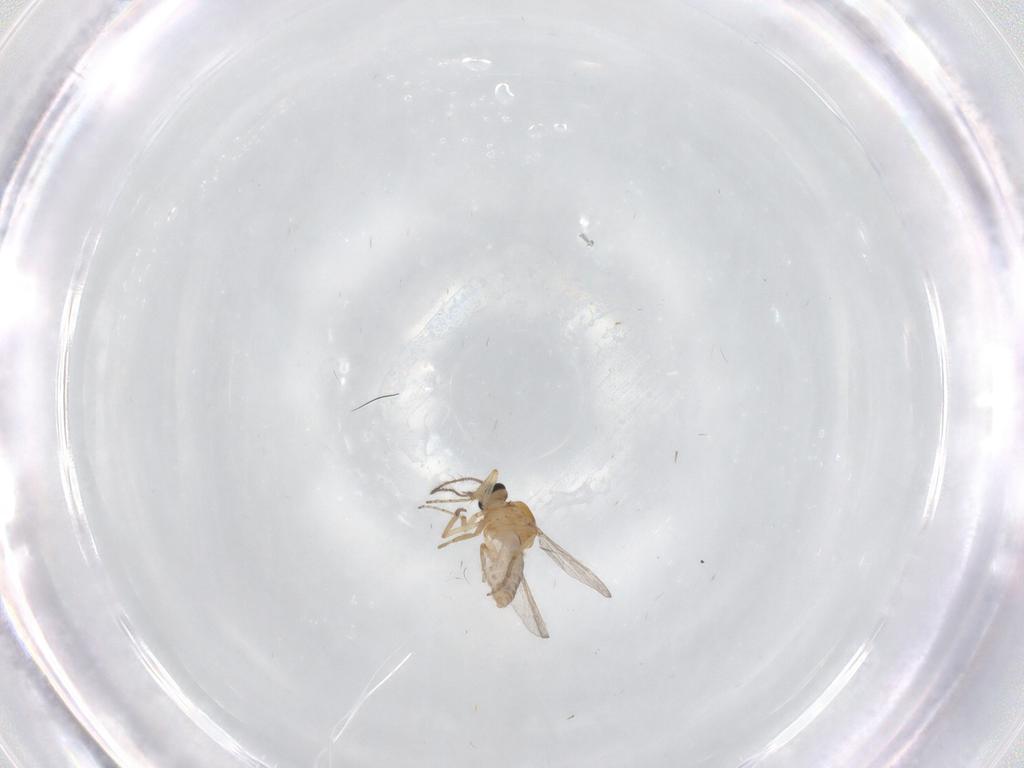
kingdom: Animalia
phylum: Arthropoda
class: Insecta
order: Diptera
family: Ceratopogonidae
